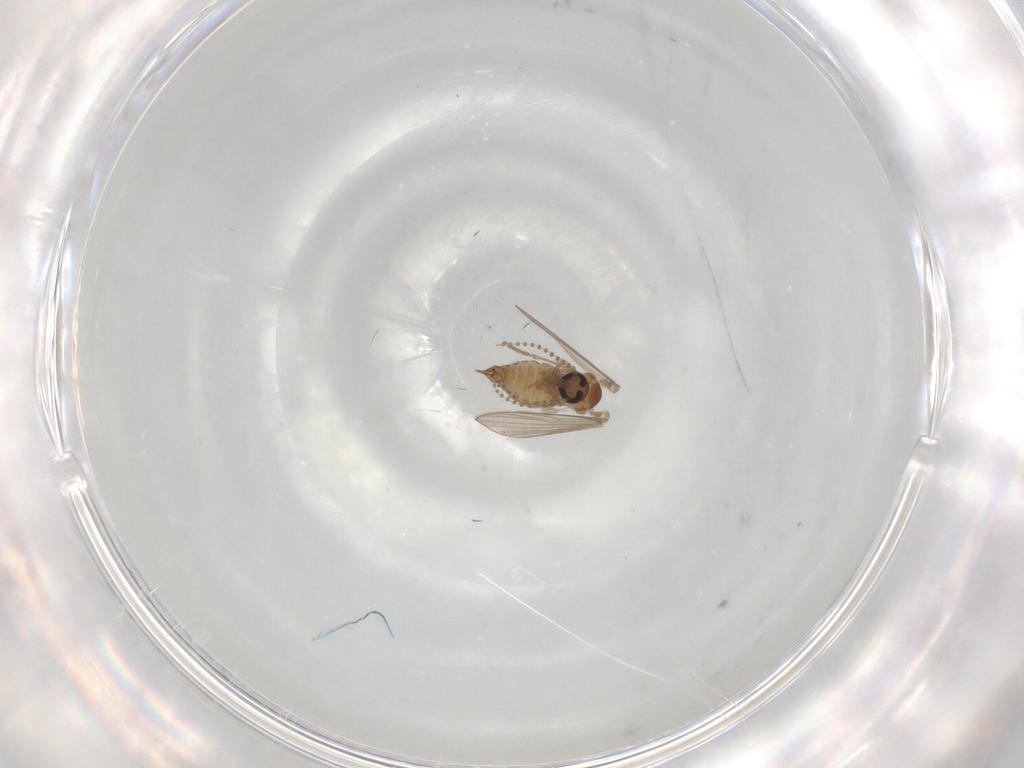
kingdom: Animalia
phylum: Arthropoda
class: Insecta
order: Diptera
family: Psychodidae
